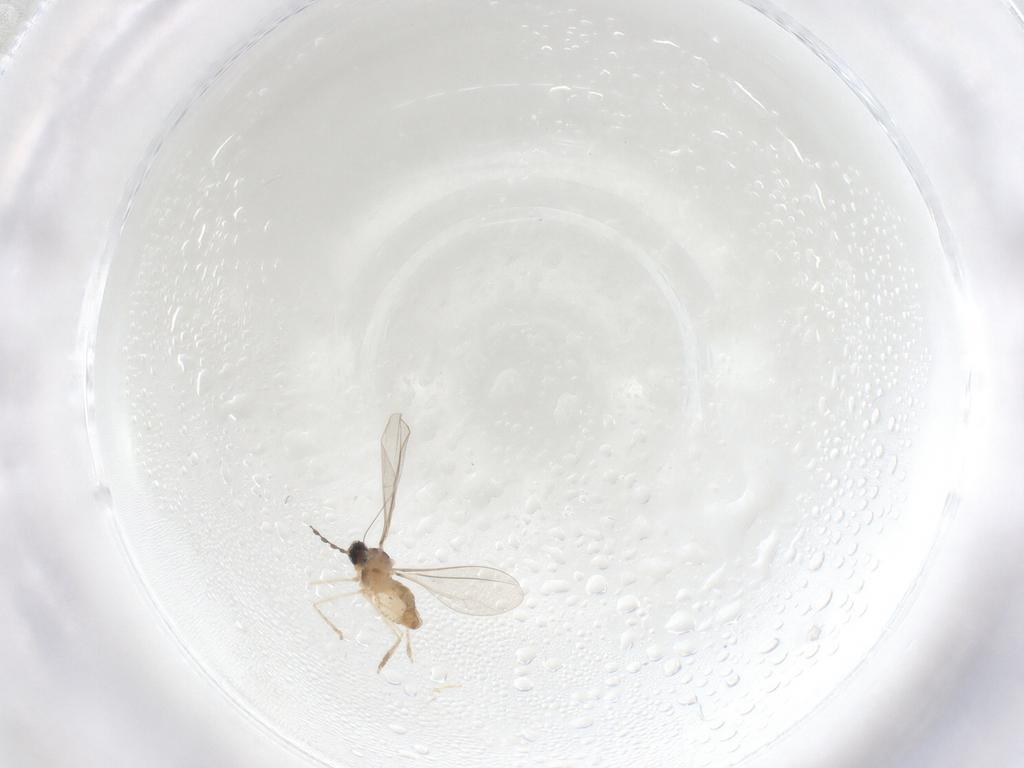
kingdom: Animalia
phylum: Arthropoda
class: Insecta
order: Diptera
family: Cecidomyiidae
